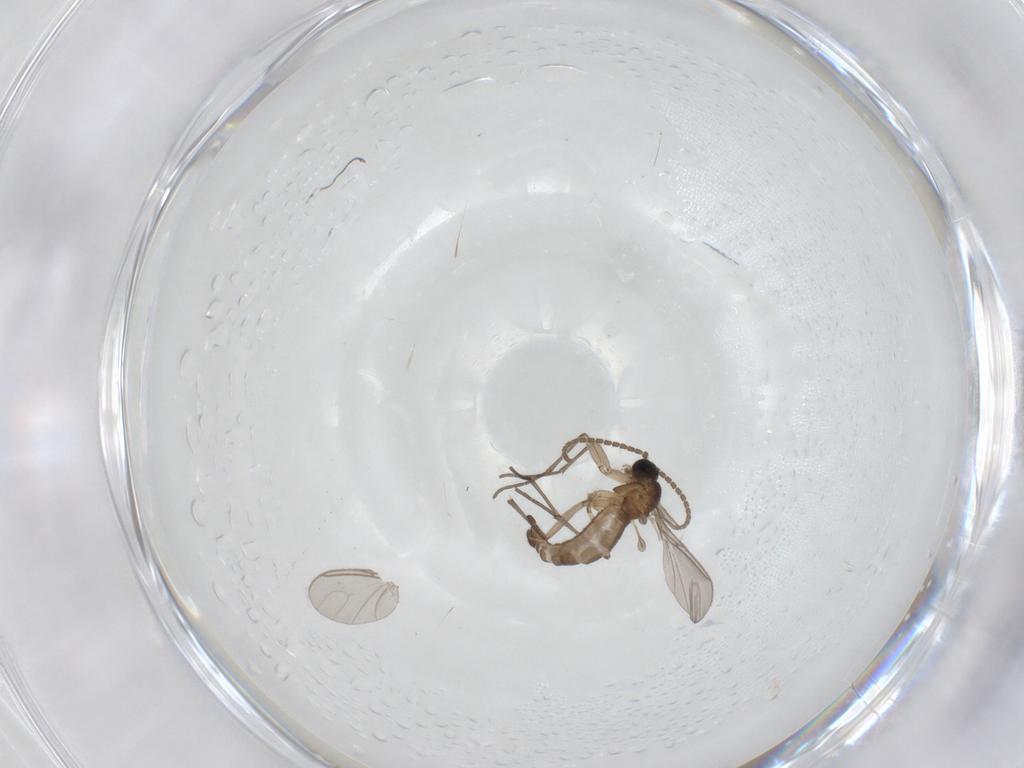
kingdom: Animalia
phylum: Arthropoda
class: Insecta
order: Diptera
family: Sciaridae
